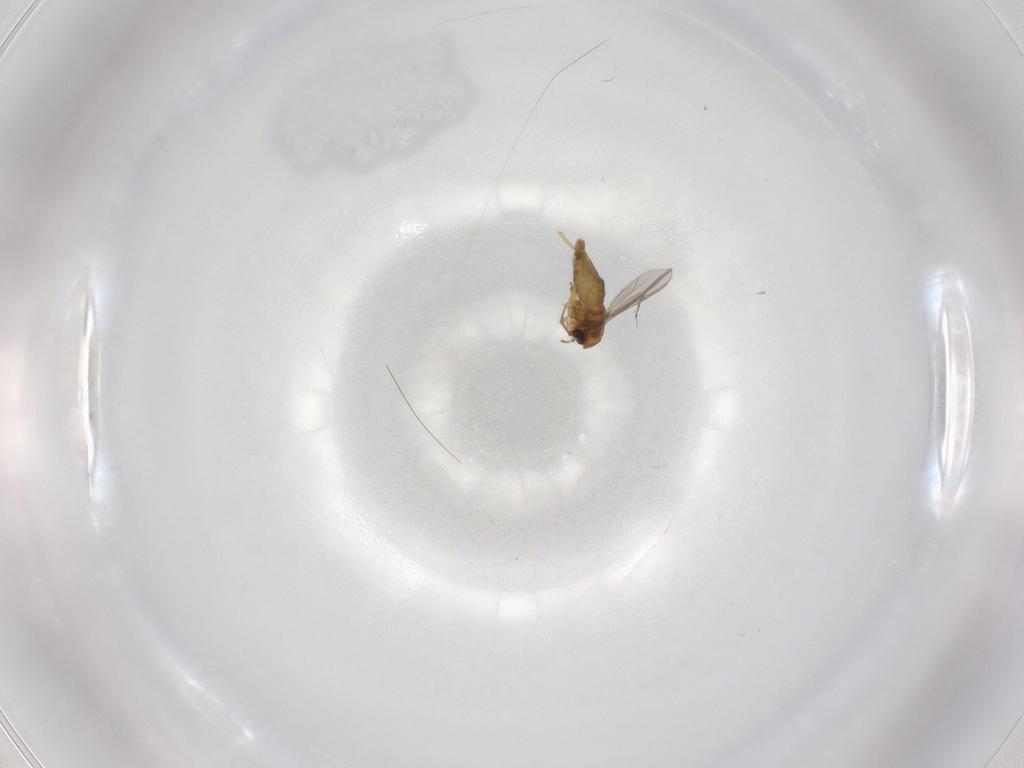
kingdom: Animalia
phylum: Arthropoda
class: Insecta
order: Diptera
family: Chironomidae
